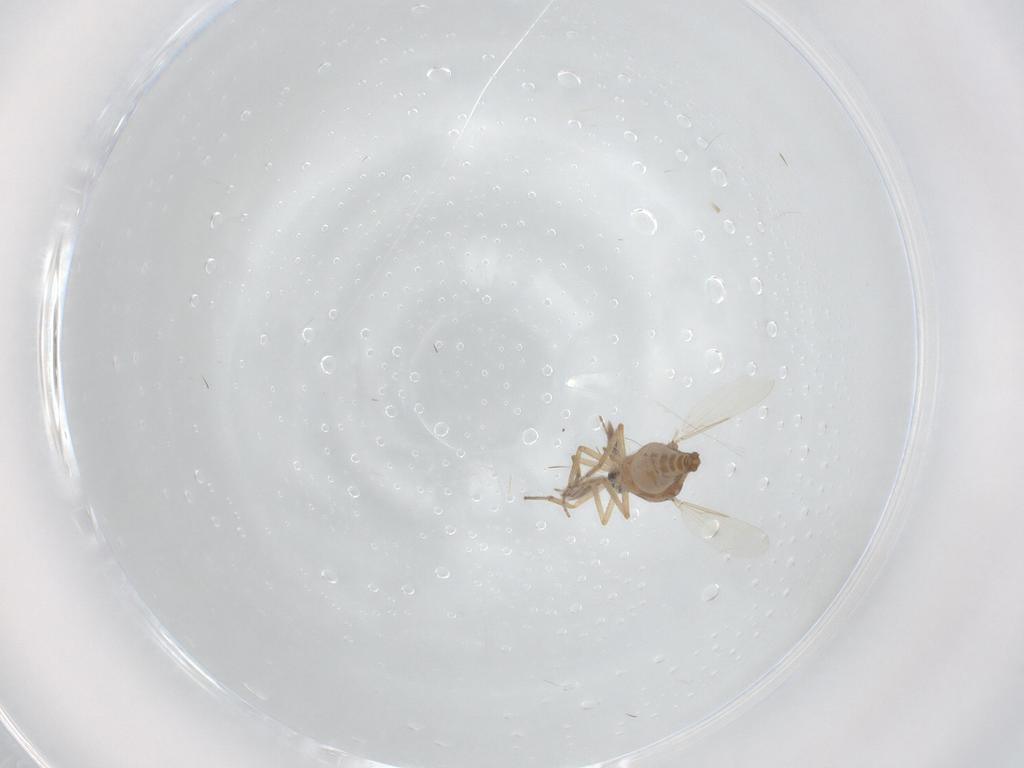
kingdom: Animalia
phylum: Arthropoda
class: Insecta
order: Diptera
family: Ceratopogonidae
